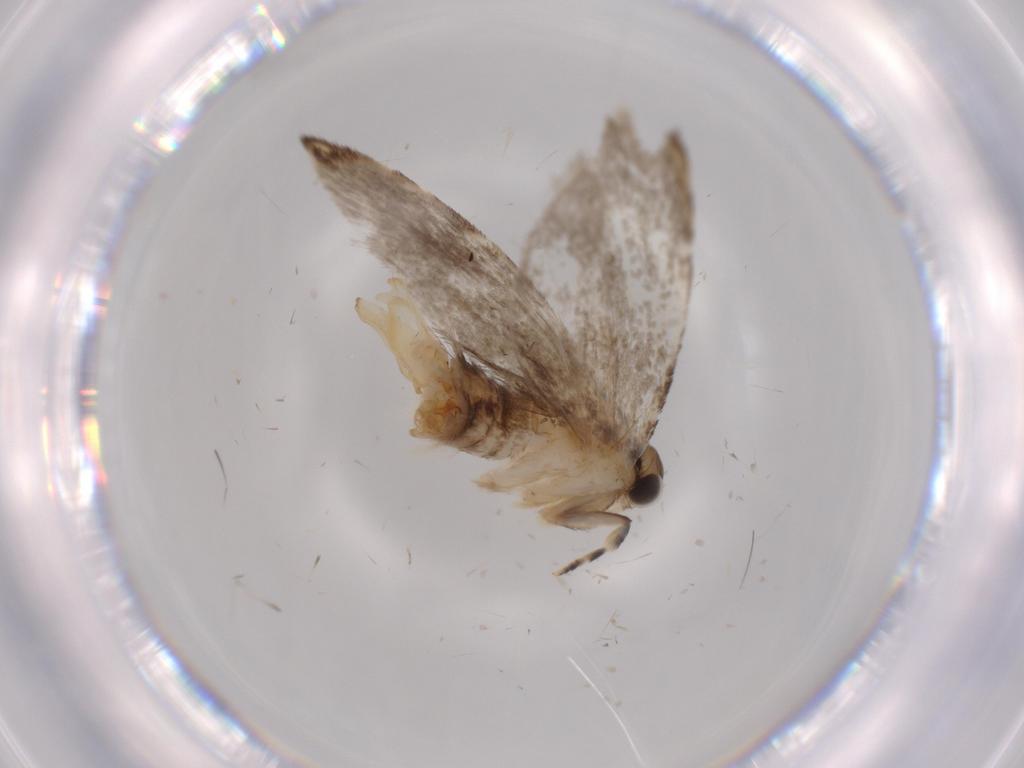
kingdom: Animalia
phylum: Arthropoda
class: Insecta
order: Lepidoptera
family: Tineidae
